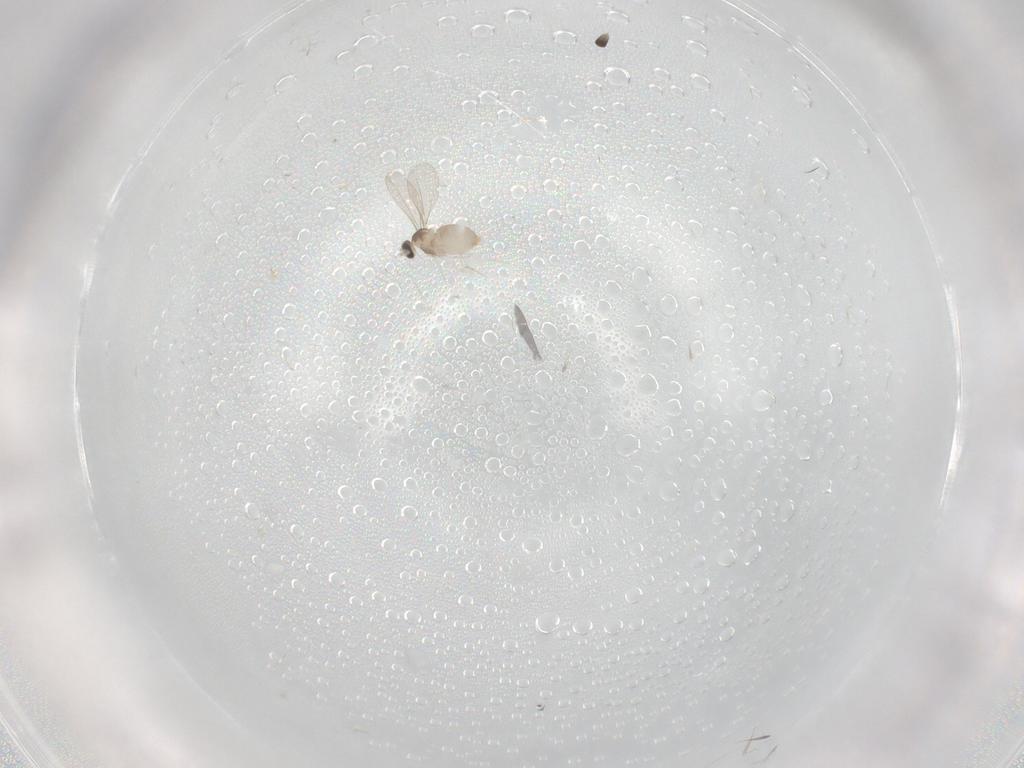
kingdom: Animalia
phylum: Arthropoda
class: Insecta
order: Diptera
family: Cecidomyiidae
